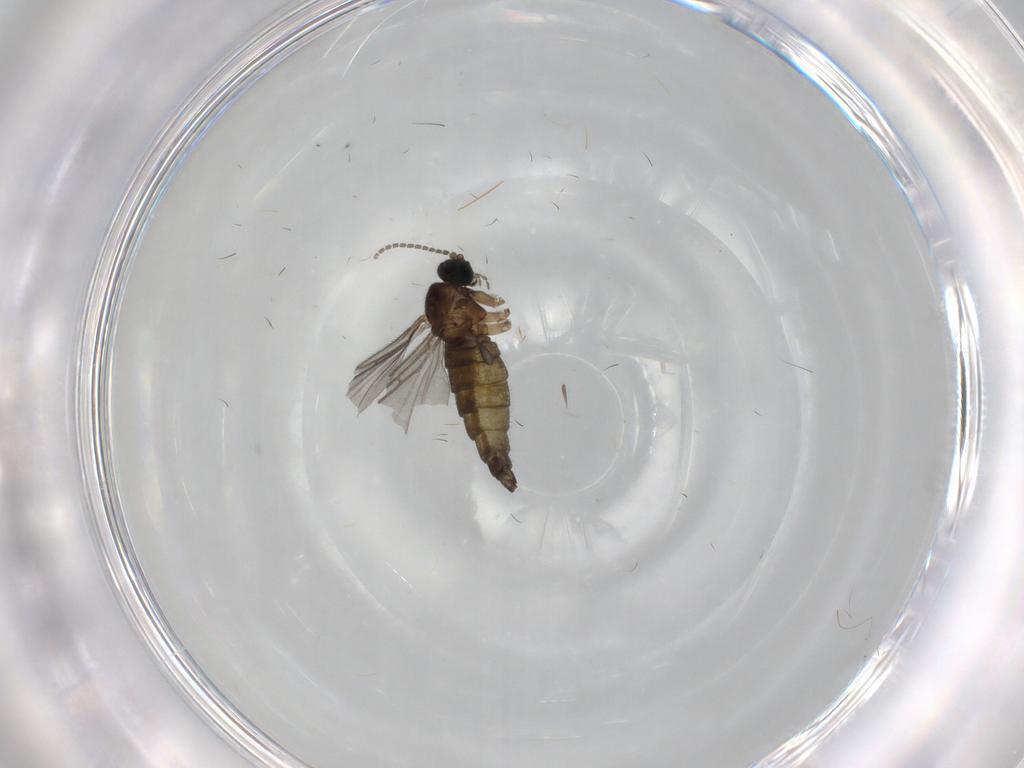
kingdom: Animalia
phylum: Arthropoda
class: Insecta
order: Diptera
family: Sciaridae
